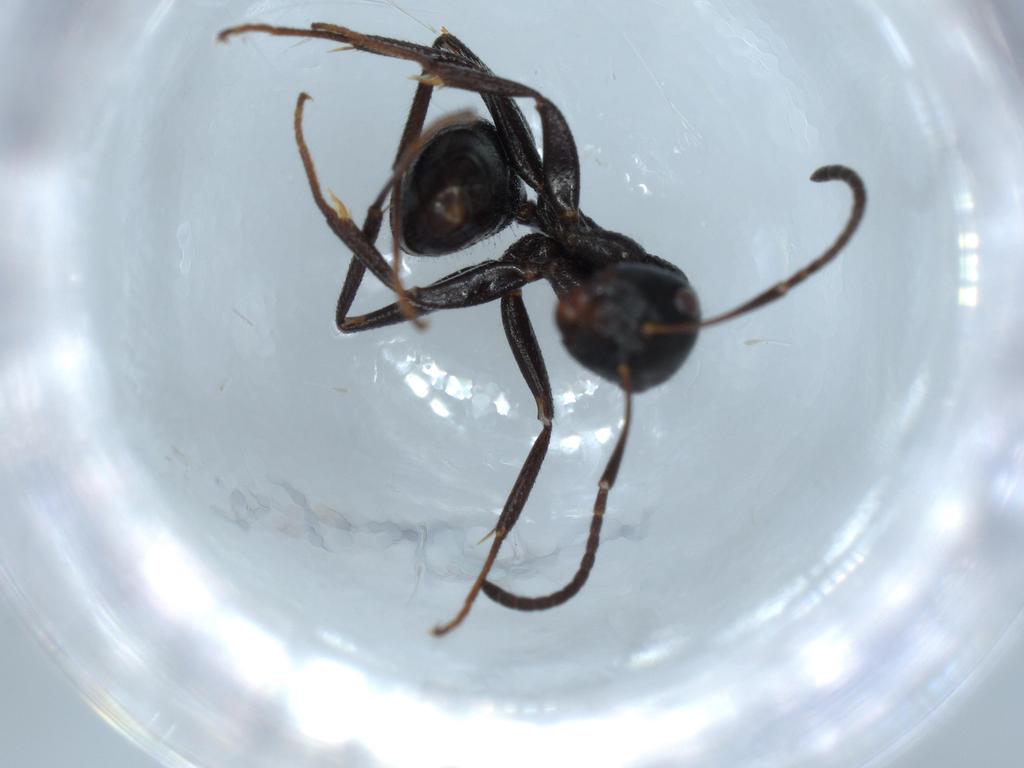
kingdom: Animalia
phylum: Arthropoda
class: Insecta
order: Hymenoptera
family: Formicidae
